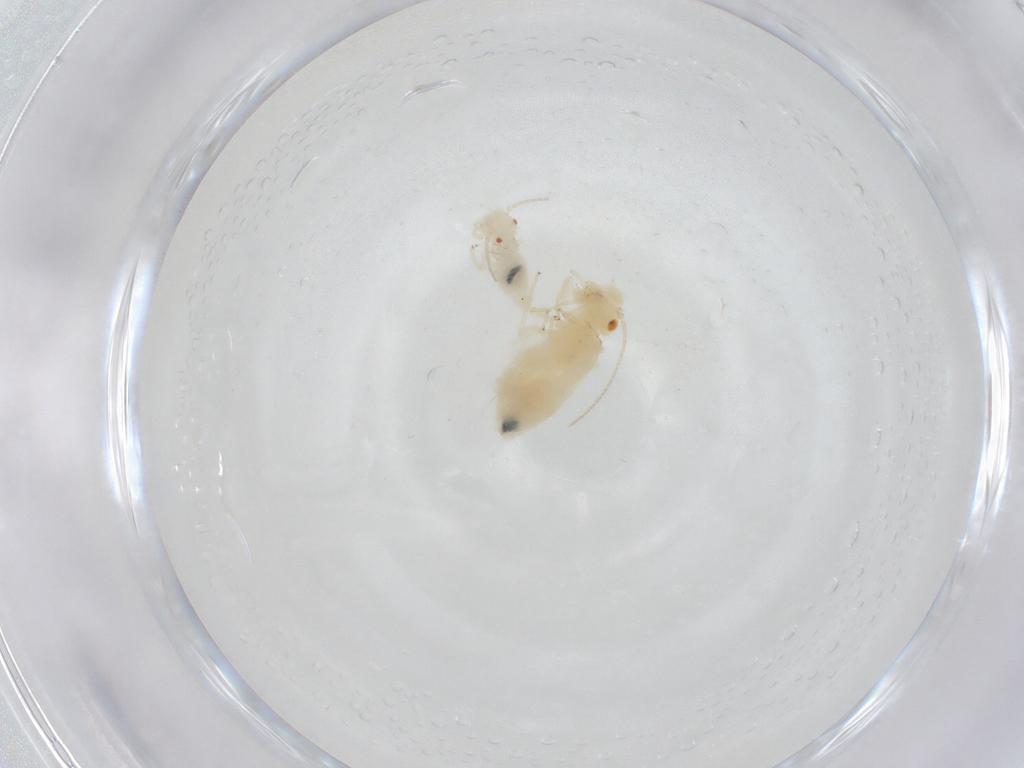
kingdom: Animalia
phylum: Arthropoda
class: Insecta
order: Psocodea
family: Caeciliusidae
